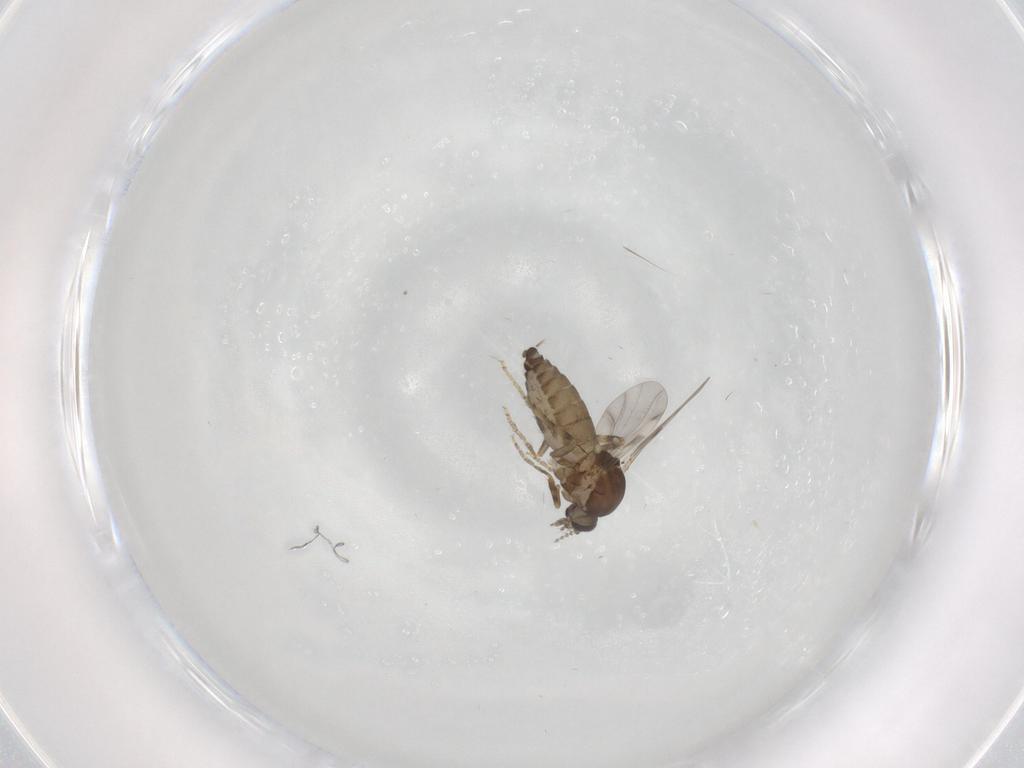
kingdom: Animalia
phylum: Arthropoda
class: Insecta
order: Diptera
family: Ceratopogonidae
